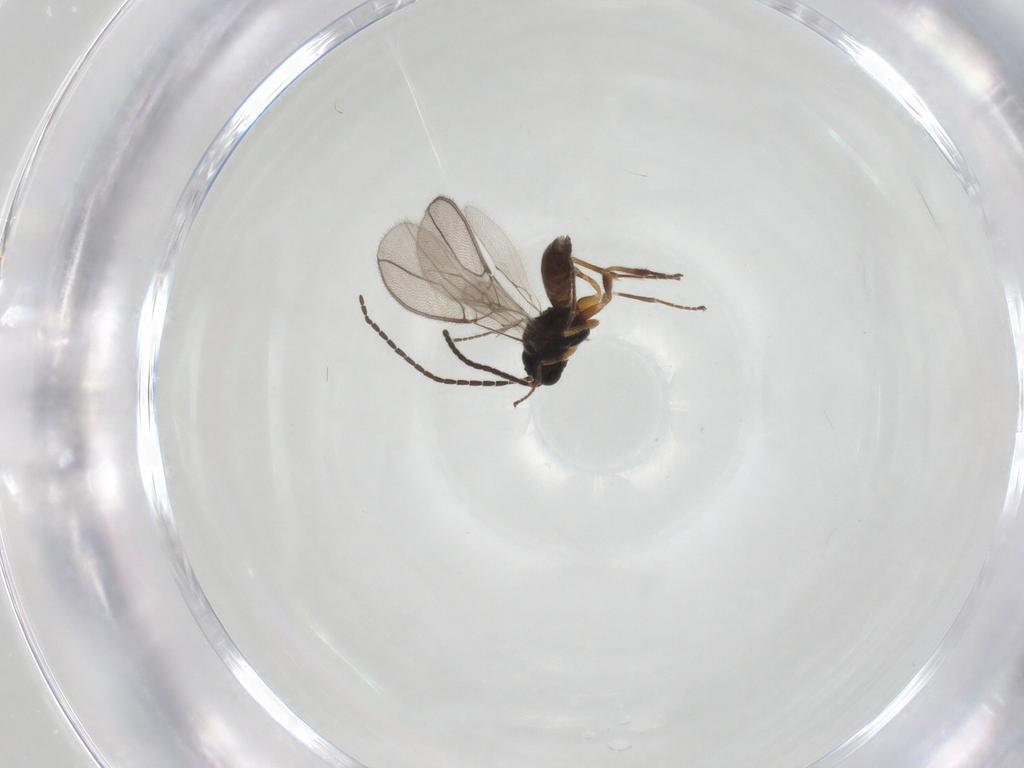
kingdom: Animalia
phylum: Arthropoda
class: Insecta
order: Hymenoptera
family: Braconidae
